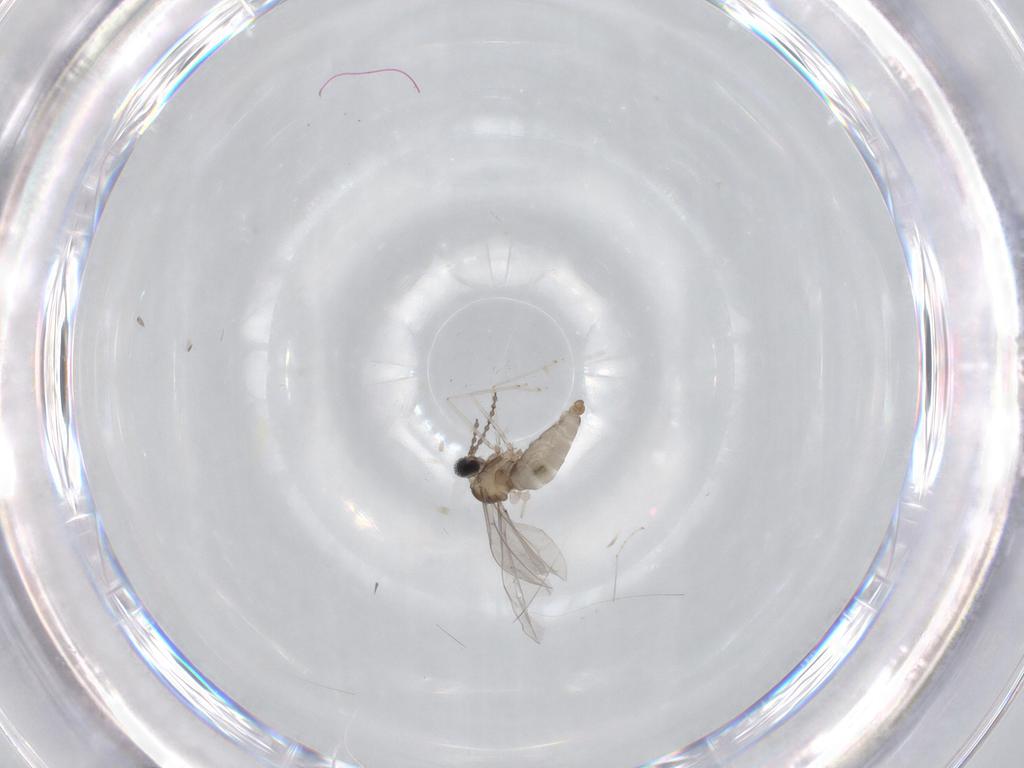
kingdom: Animalia
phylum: Arthropoda
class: Insecta
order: Diptera
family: Cecidomyiidae
